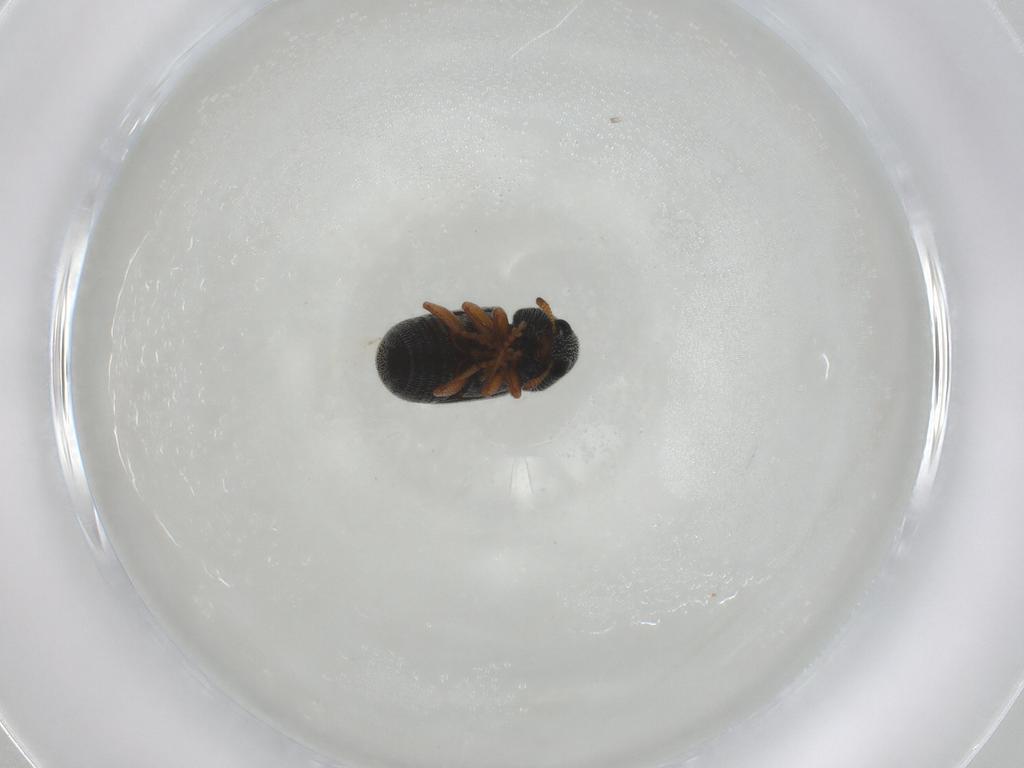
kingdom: Animalia
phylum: Arthropoda
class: Insecta
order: Coleoptera
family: Anthribidae
